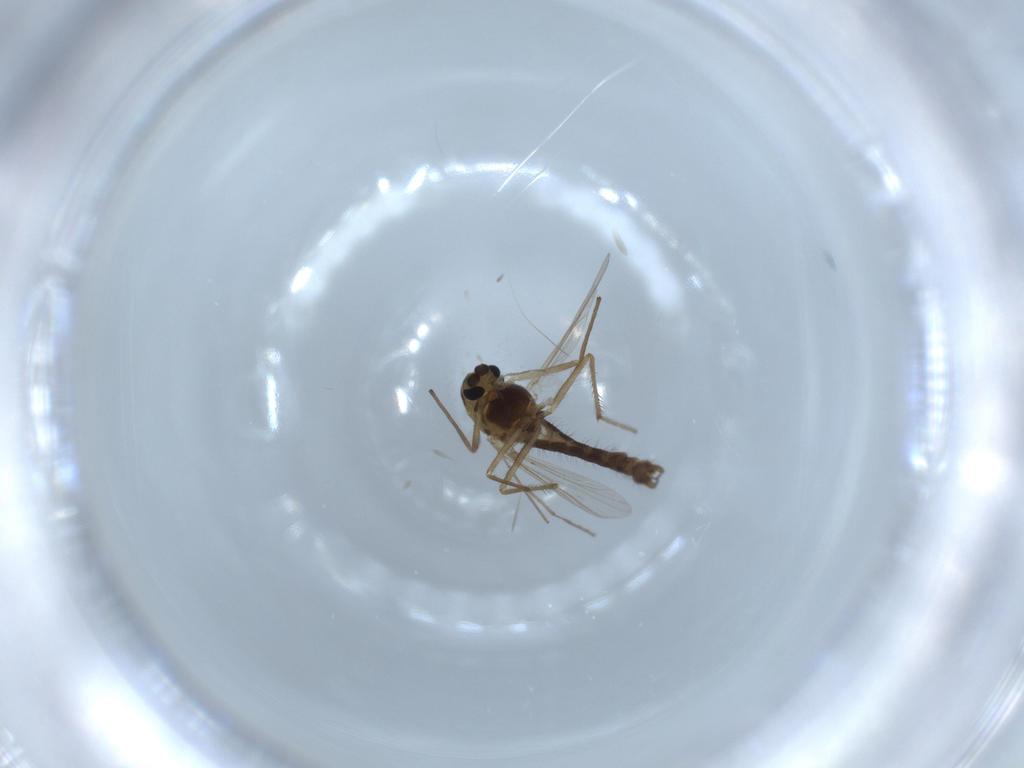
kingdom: Animalia
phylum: Arthropoda
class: Insecta
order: Diptera
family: Chironomidae
